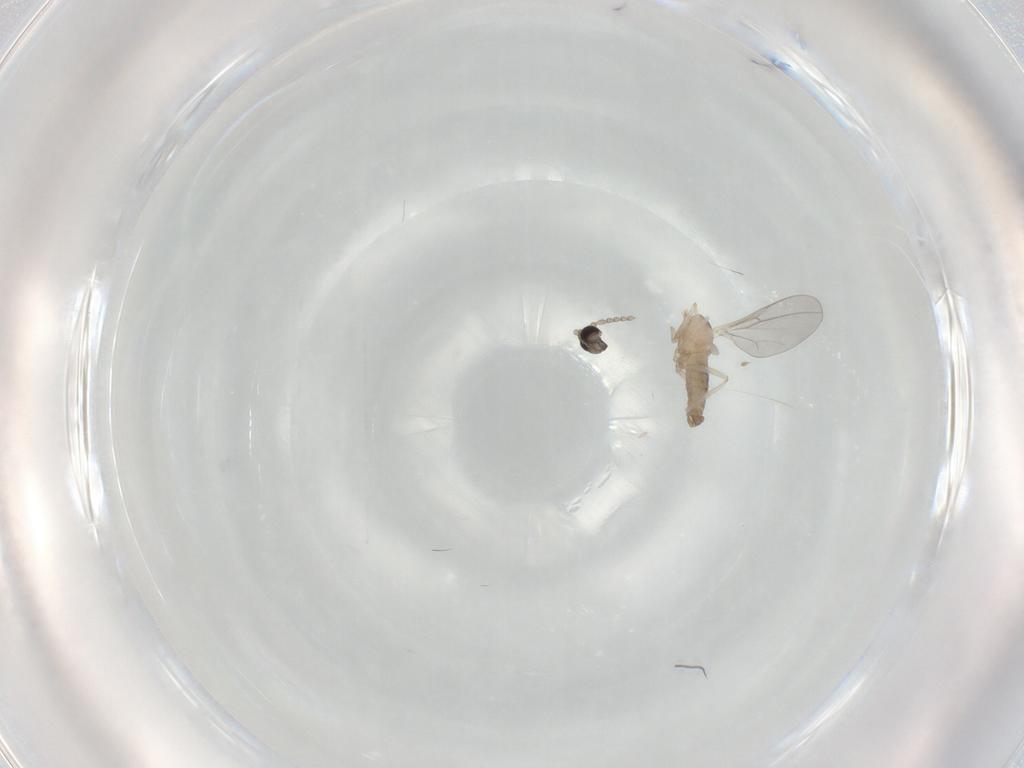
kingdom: Animalia
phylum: Arthropoda
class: Insecta
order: Diptera
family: Cecidomyiidae
